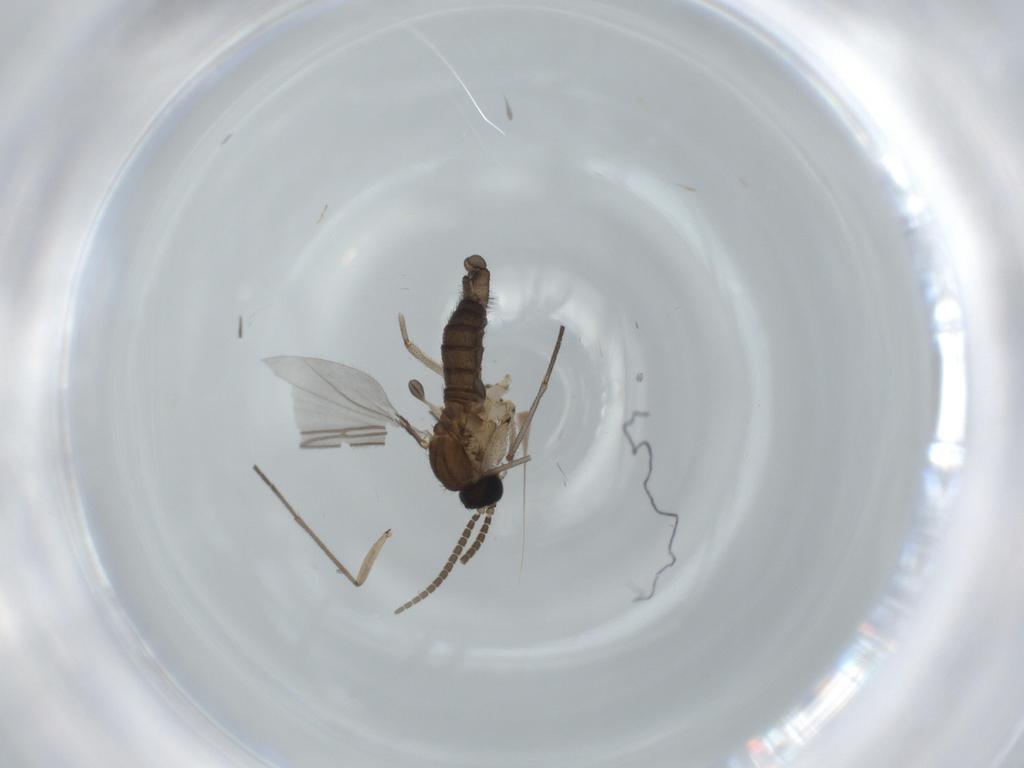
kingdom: Animalia
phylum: Arthropoda
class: Insecta
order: Diptera
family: Sciaridae
